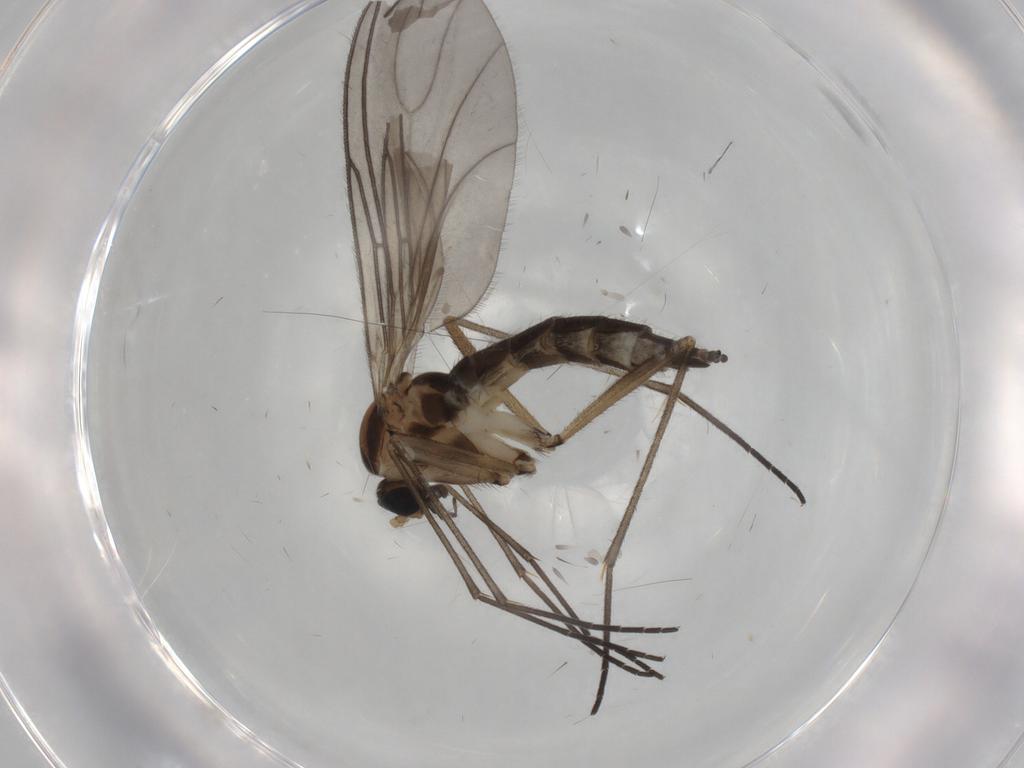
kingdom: Animalia
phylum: Arthropoda
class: Insecta
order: Diptera
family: Sciaridae
